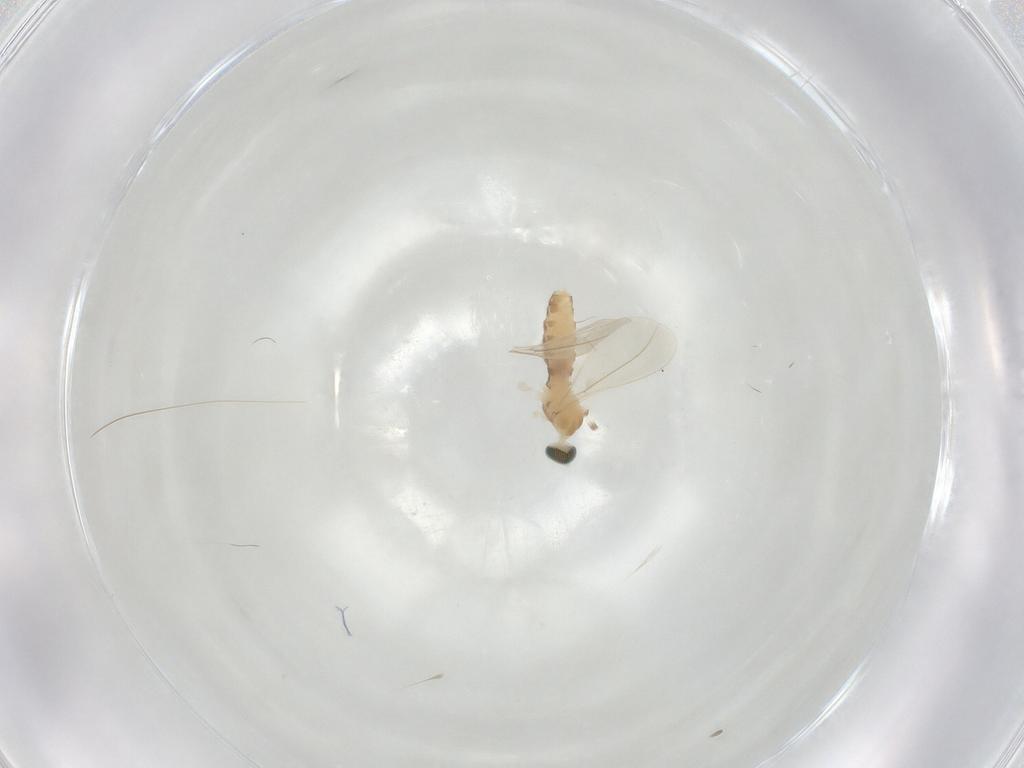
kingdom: Animalia
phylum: Arthropoda
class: Insecta
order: Diptera
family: Cecidomyiidae
